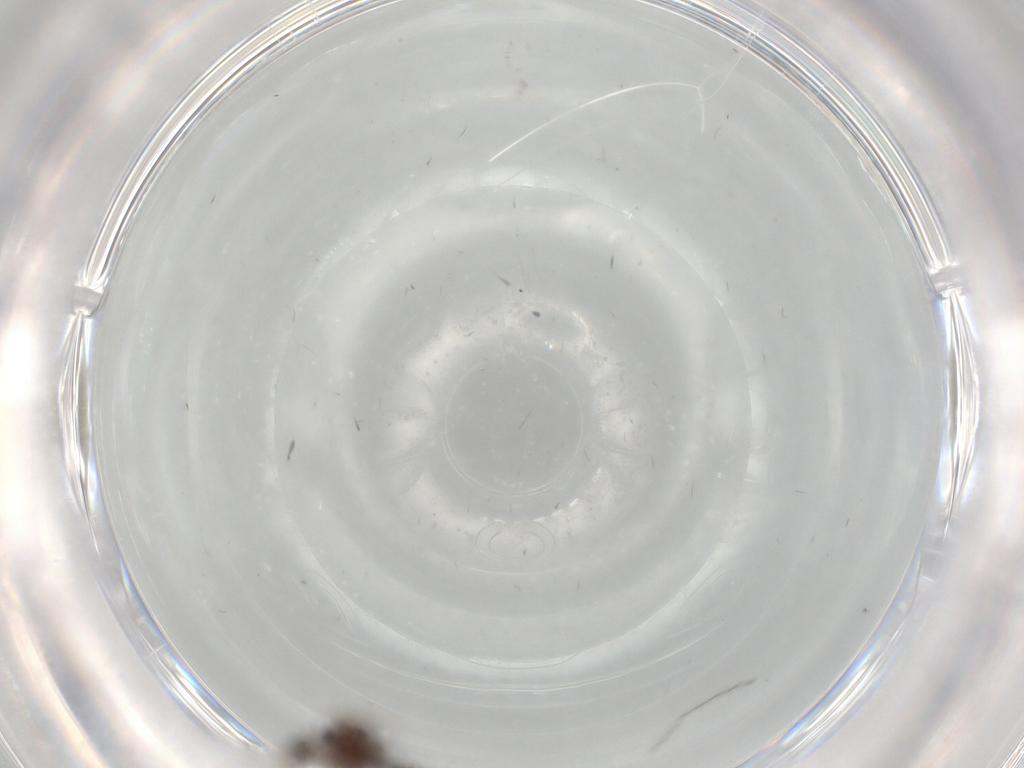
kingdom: Animalia
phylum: Arthropoda
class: Insecta
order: Diptera
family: Ceratopogonidae
